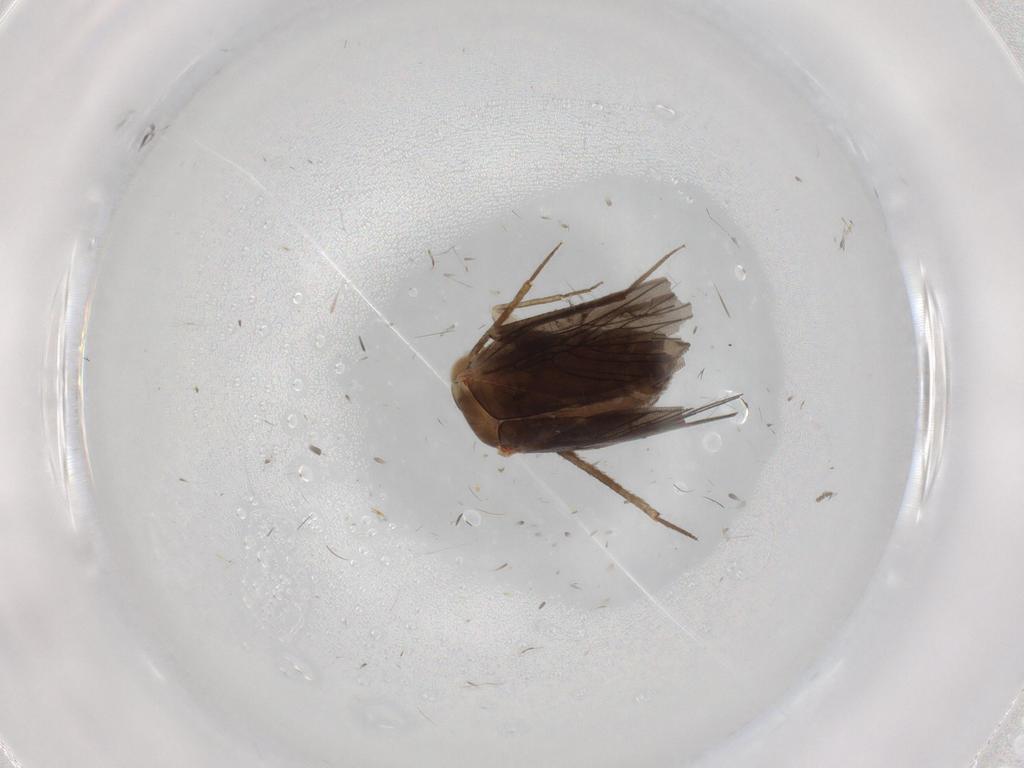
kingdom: Animalia
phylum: Arthropoda
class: Insecta
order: Psocodea
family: Lepidopsocidae
